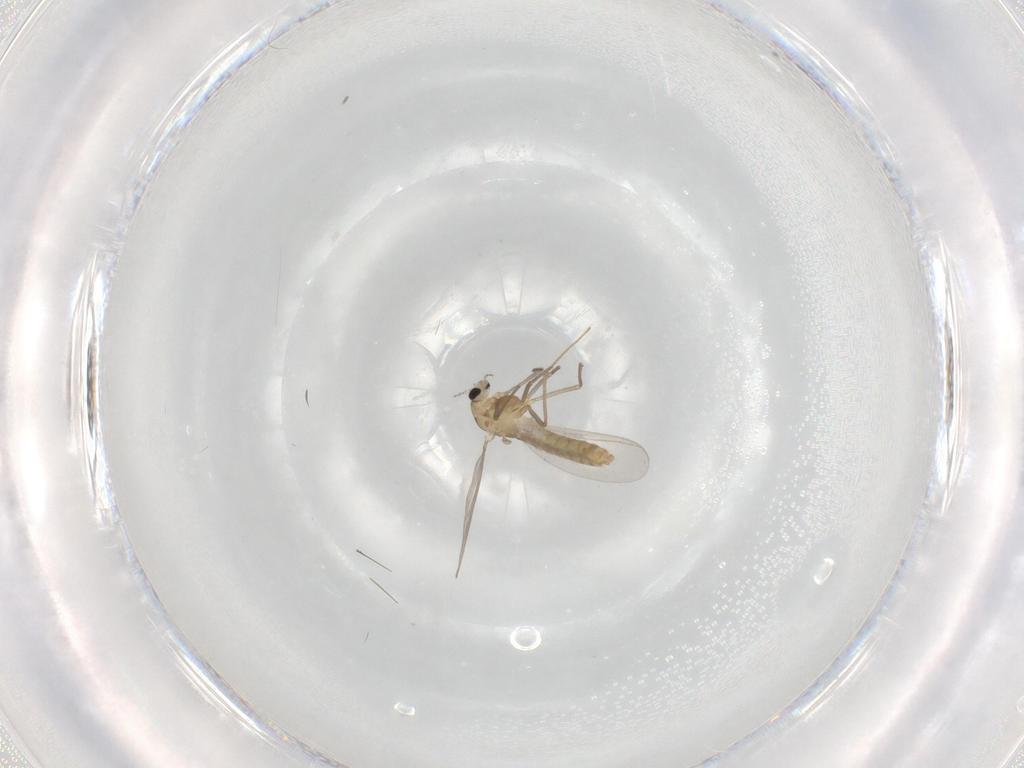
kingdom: Animalia
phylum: Arthropoda
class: Insecta
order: Diptera
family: Chironomidae
